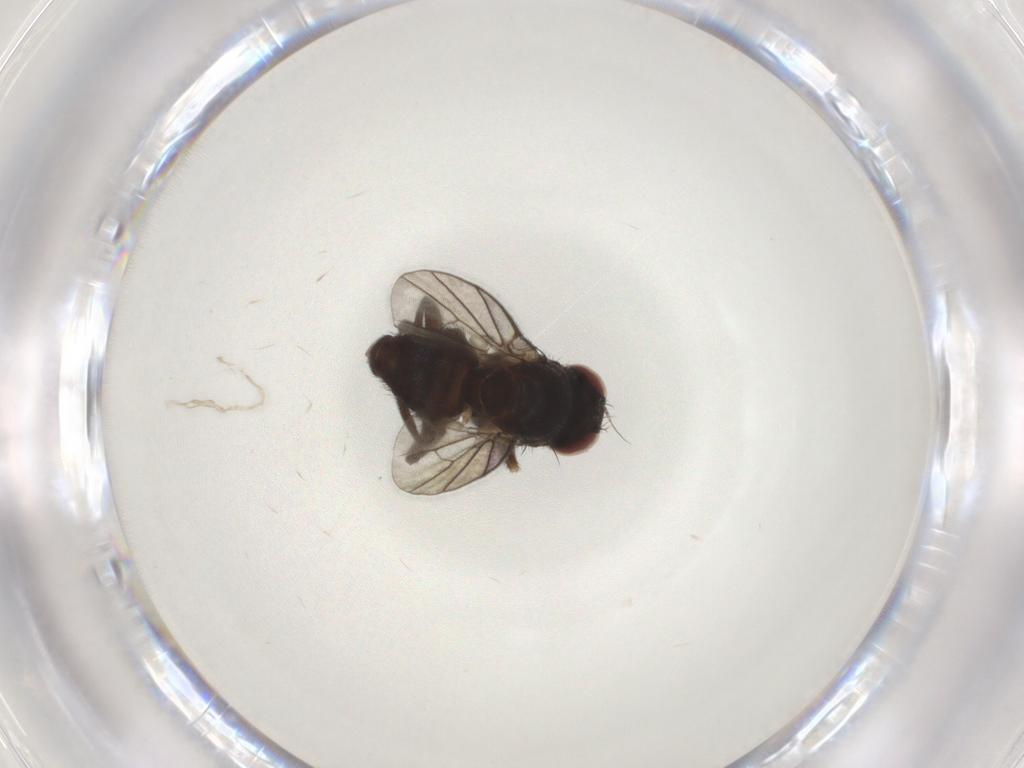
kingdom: Animalia
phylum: Arthropoda
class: Insecta
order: Diptera
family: Agromyzidae
